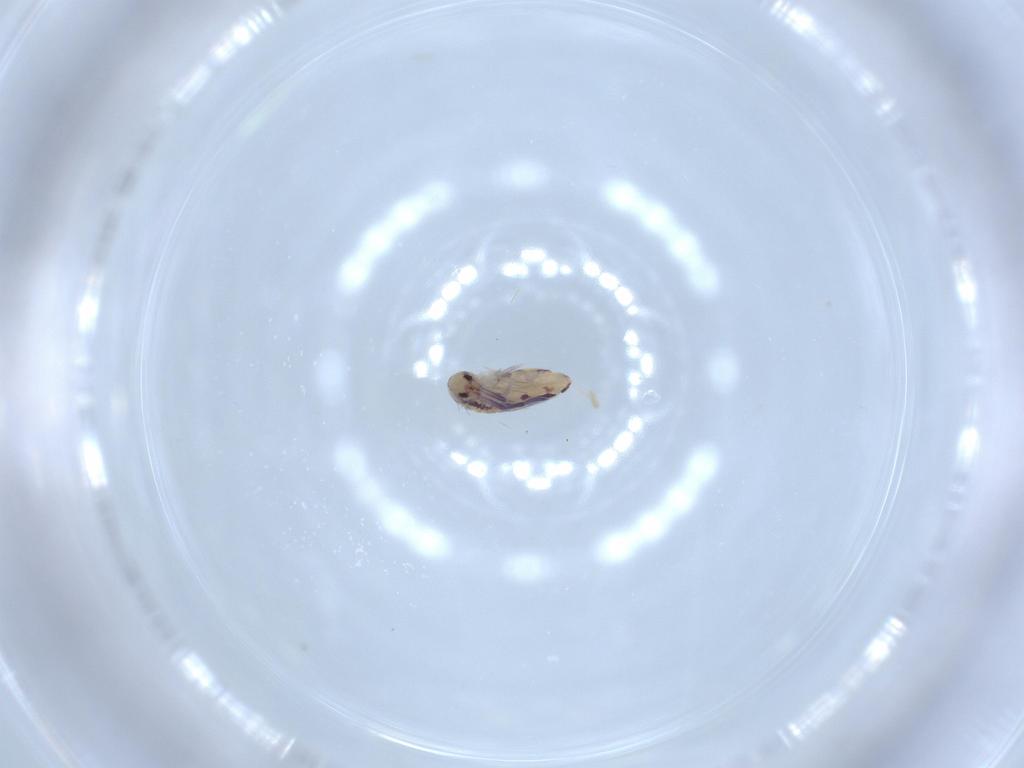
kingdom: Animalia
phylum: Arthropoda
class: Collembola
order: Entomobryomorpha
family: Entomobryidae
